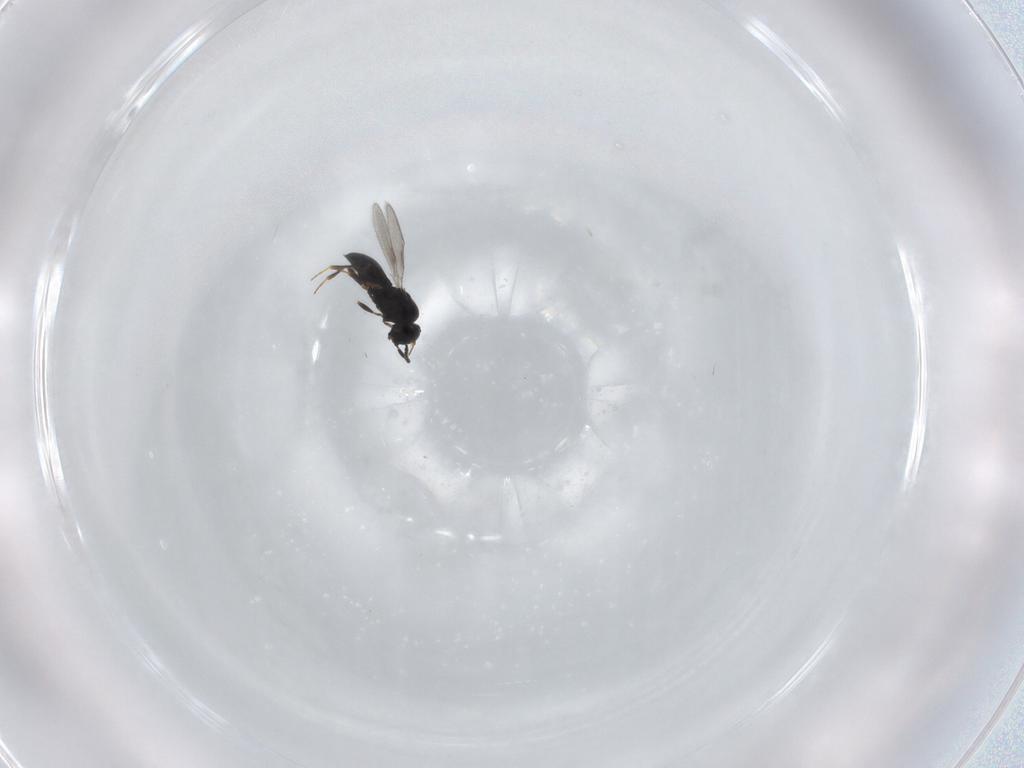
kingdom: Animalia
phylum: Arthropoda
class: Insecta
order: Hymenoptera
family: Scelionidae
